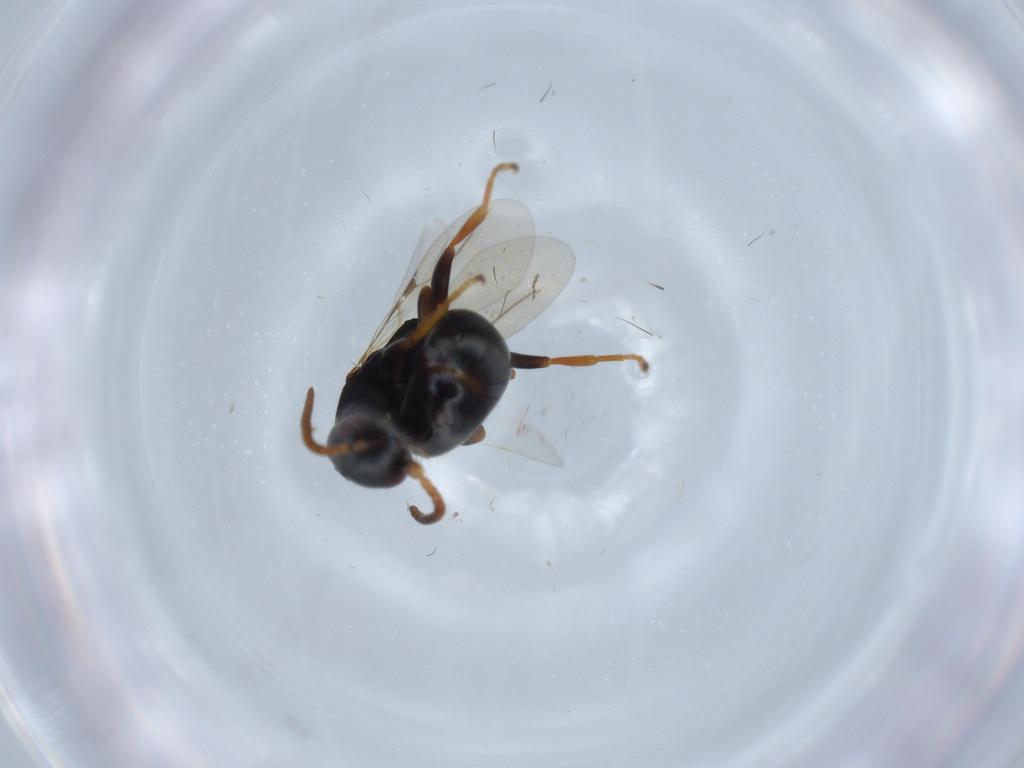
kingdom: Animalia
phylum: Arthropoda
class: Insecta
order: Hymenoptera
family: Bethylidae
